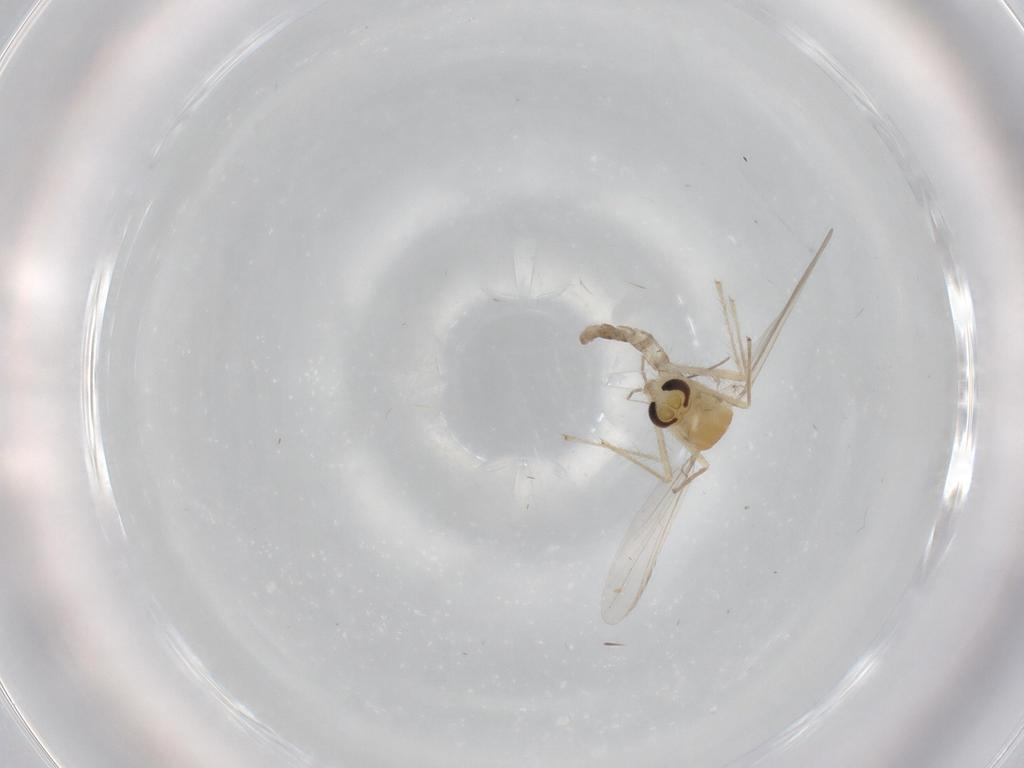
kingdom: Animalia
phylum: Arthropoda
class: Insecta
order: Diptera
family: Chironomidae
